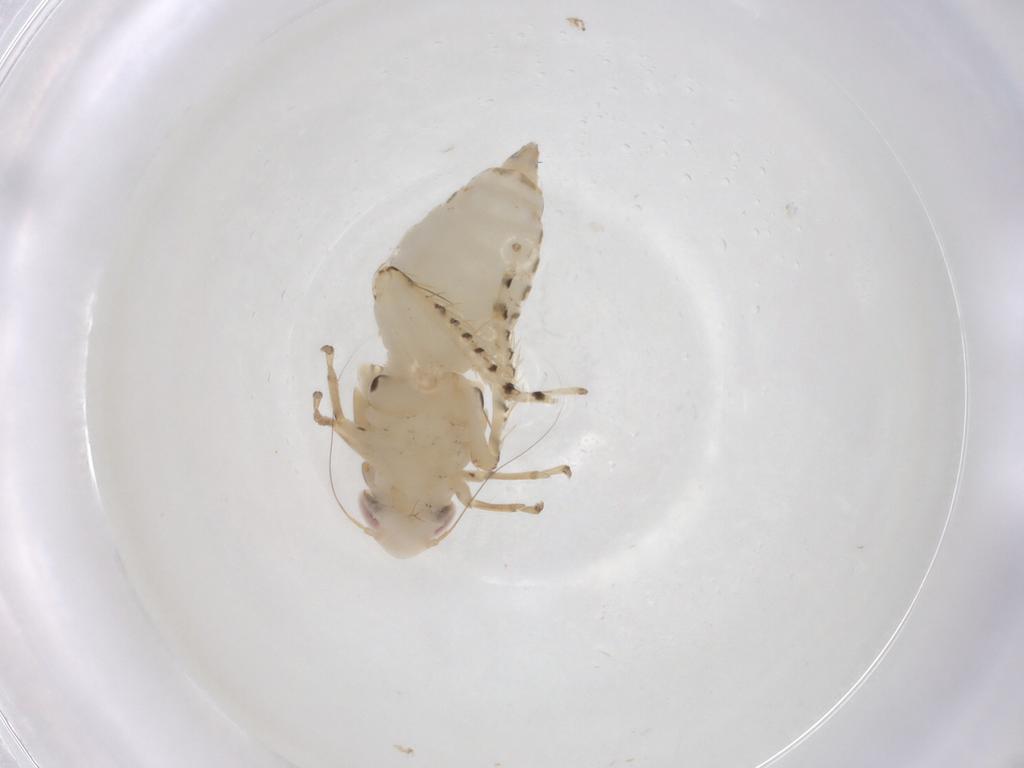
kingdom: Animalia
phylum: Arthropoda
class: Insecta
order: Hemiptera
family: Cicadellidae
